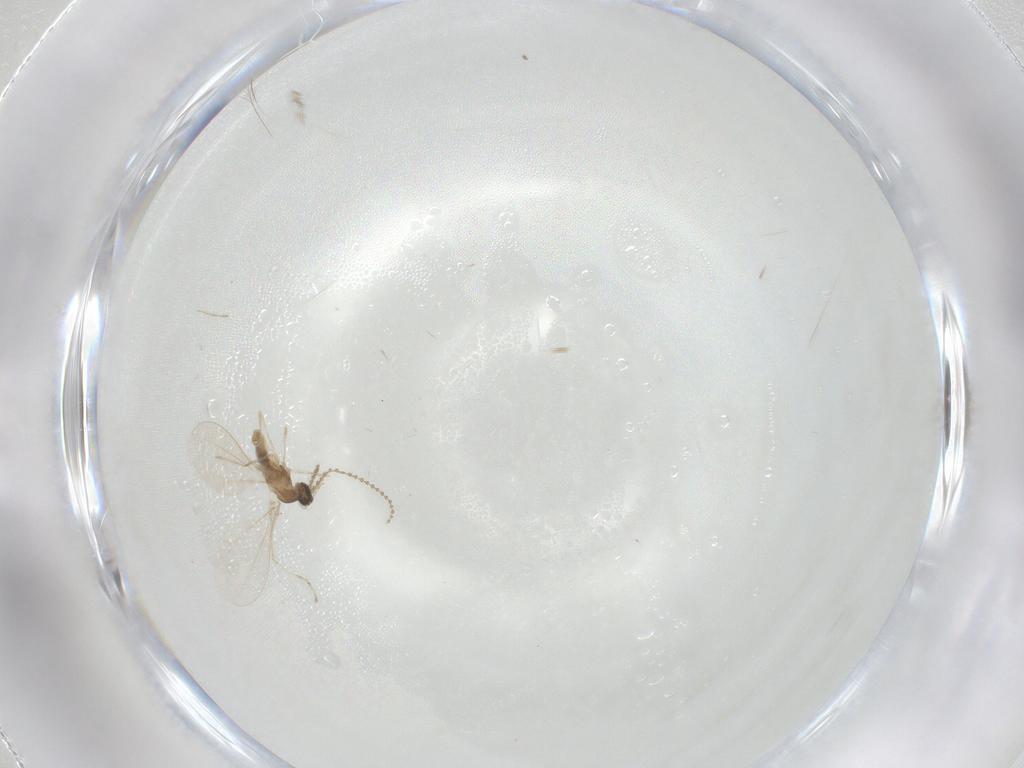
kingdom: Animalia
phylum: Arthropoda
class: Insecta
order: Diptera
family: Cecidomyiidae
